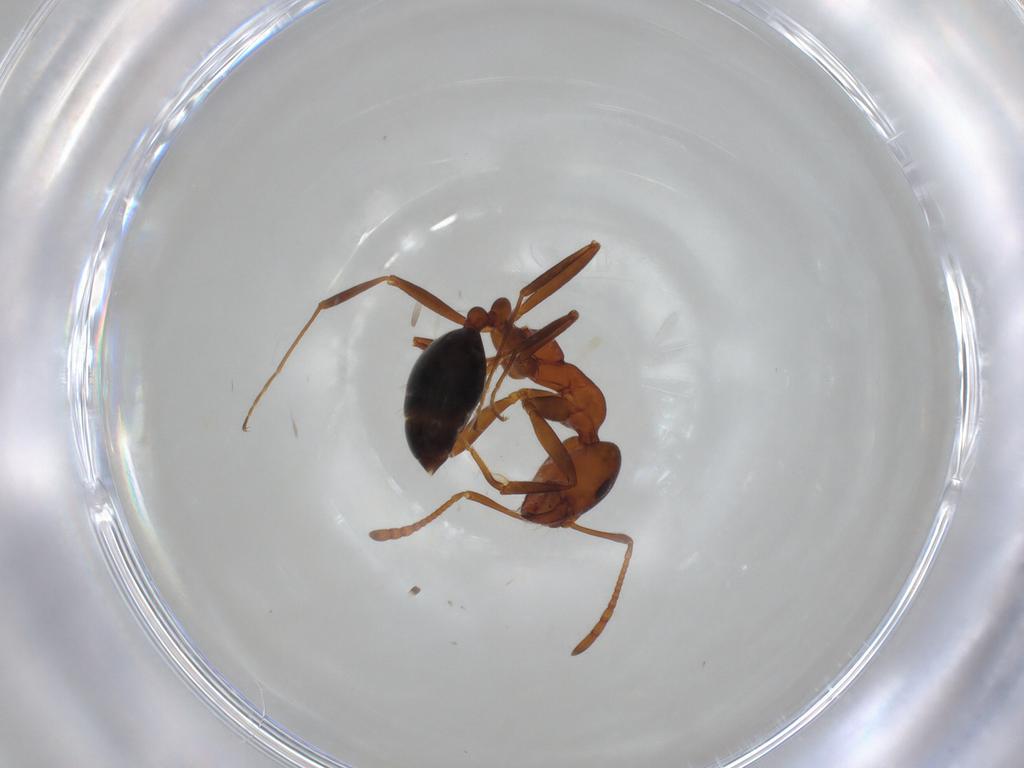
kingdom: Animalia
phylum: Arthropoda
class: Insecta
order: Hymenoptera
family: Formicidae
